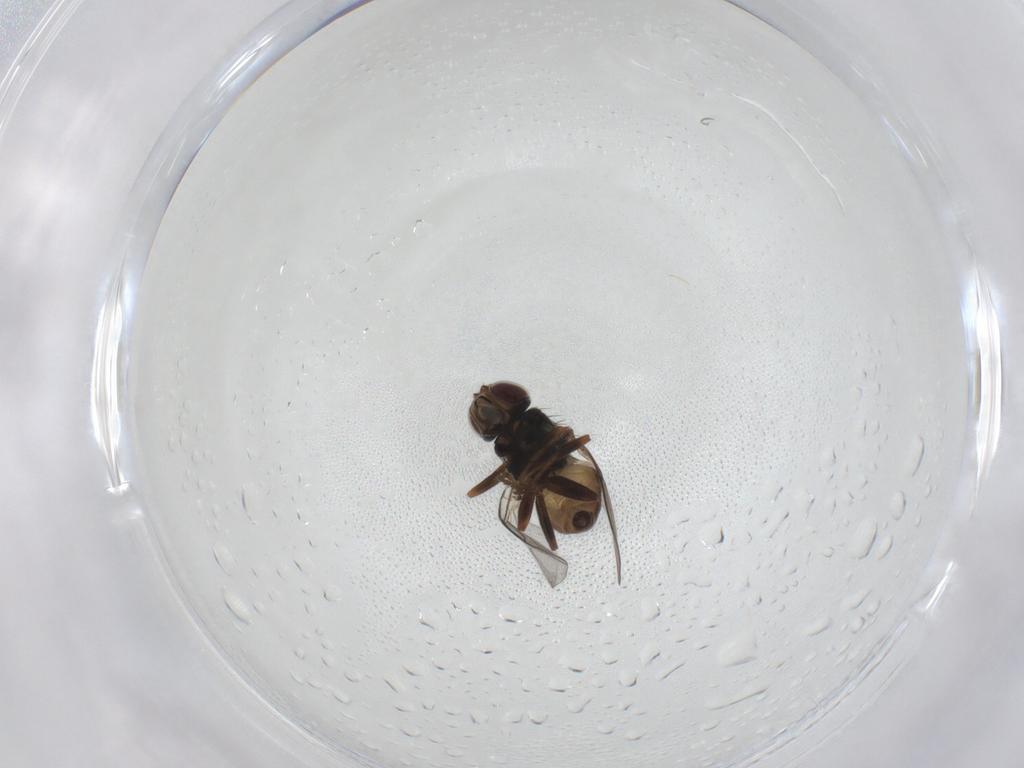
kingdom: Animalia
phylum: Arthropoda
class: Insecta
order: Diptera
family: Chloropidae
